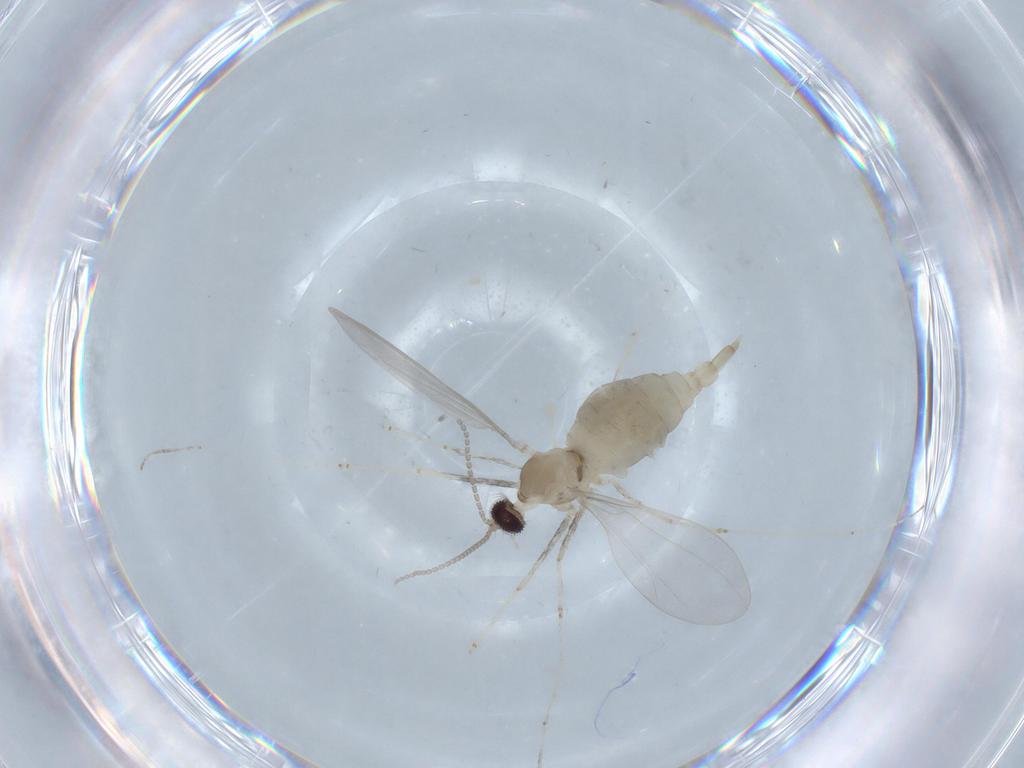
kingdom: Animalia
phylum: Arthropoda
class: Insecta
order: Diptera
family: Cecidomyiidae
